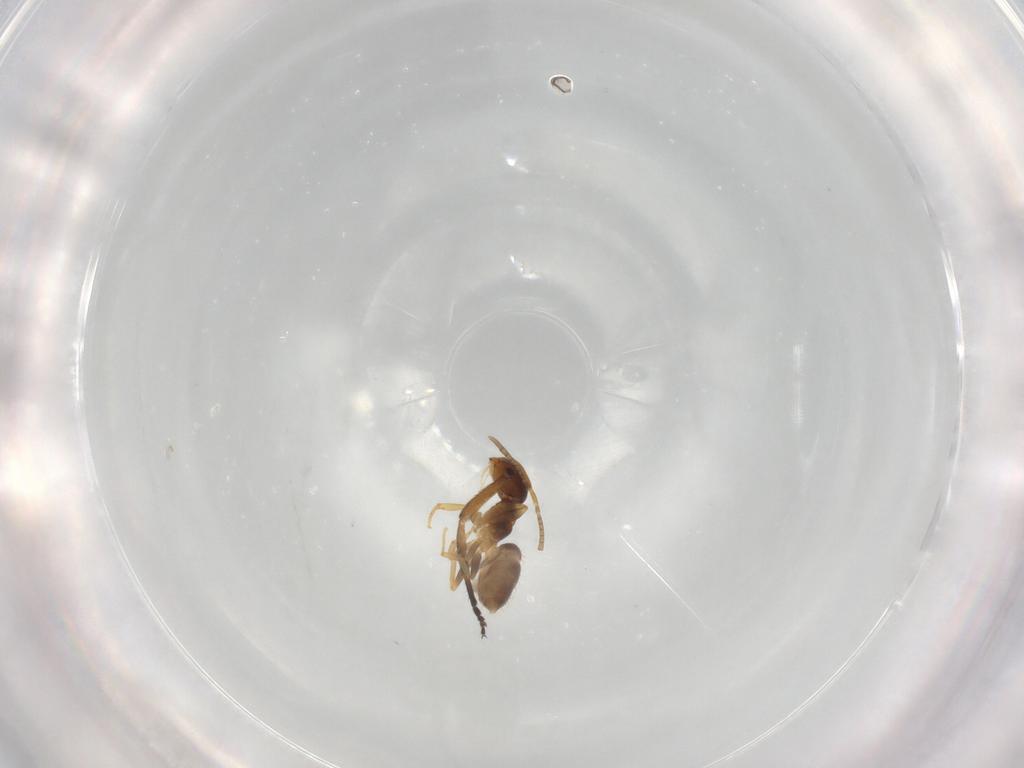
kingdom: Animalia
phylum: Arthropoda
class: Insecta
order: Hymenoptera
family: Formicidae
